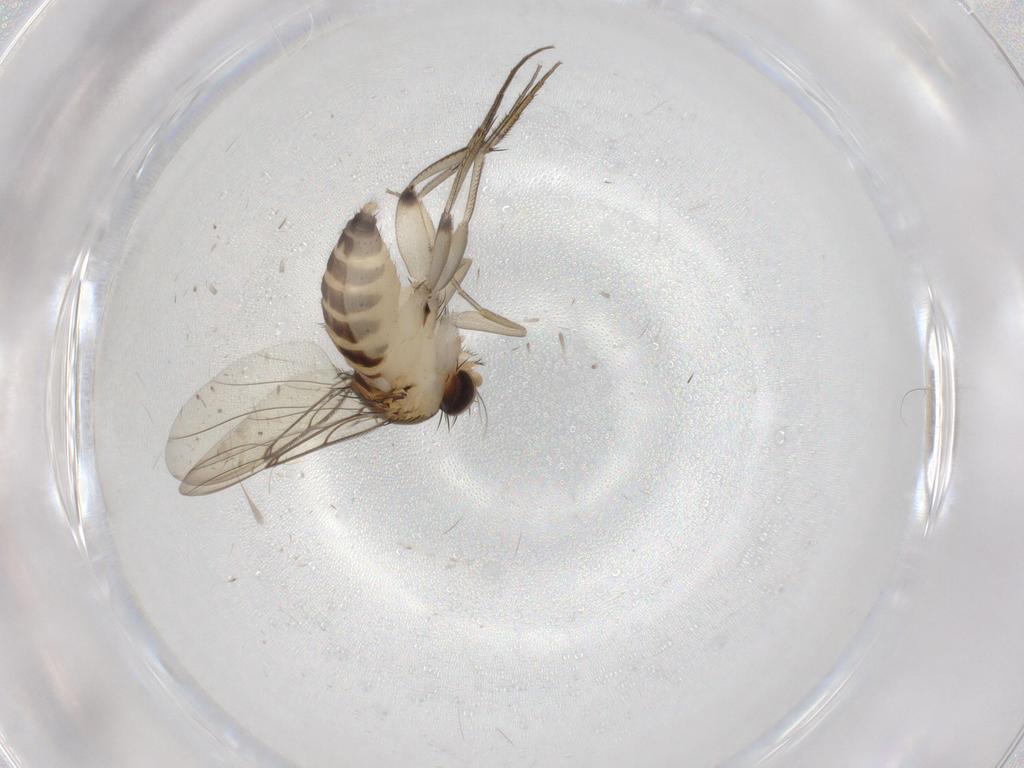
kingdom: Animalia
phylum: Arthropoda
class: Insecta
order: Diptera
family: Phoridae
